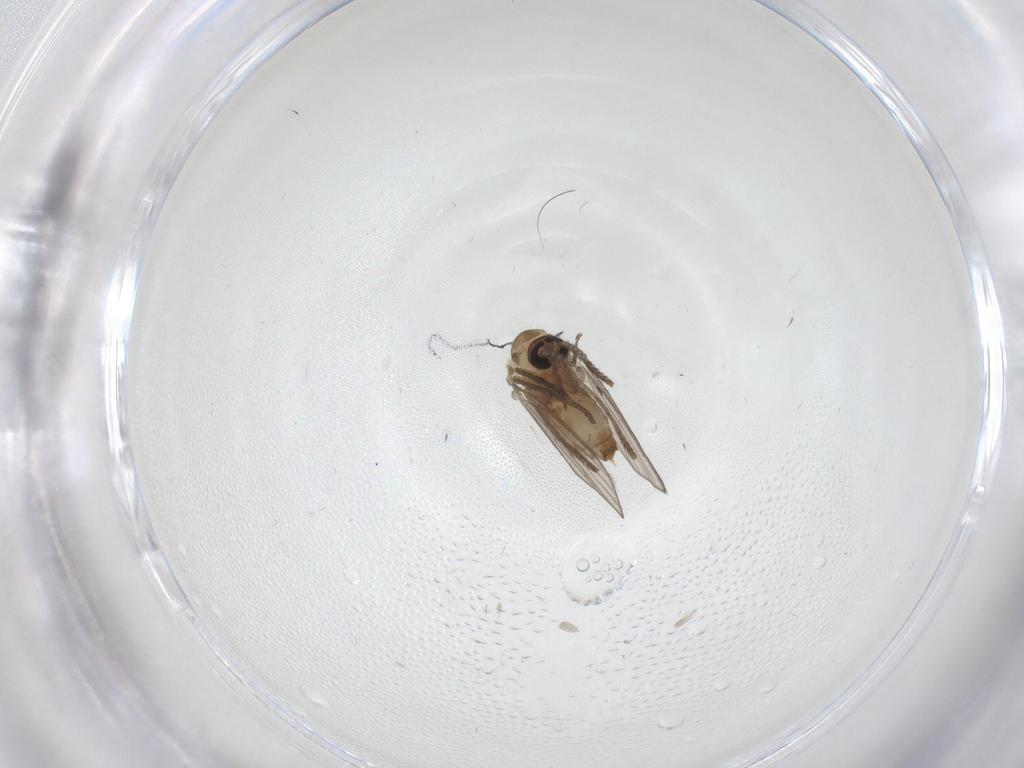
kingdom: Animalia
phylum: Arthropoda
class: Insecta
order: Diptera
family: Psychodidae
